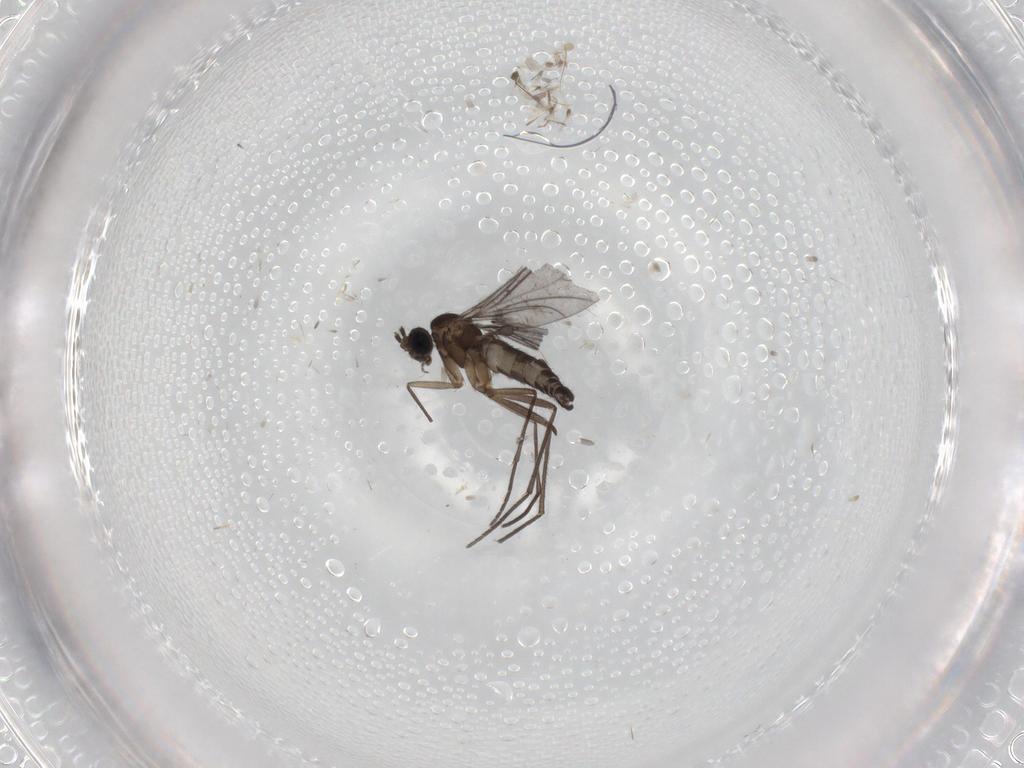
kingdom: Animalia
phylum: Arthropoda
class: Insecta
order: Diptera
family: Sciaridae
